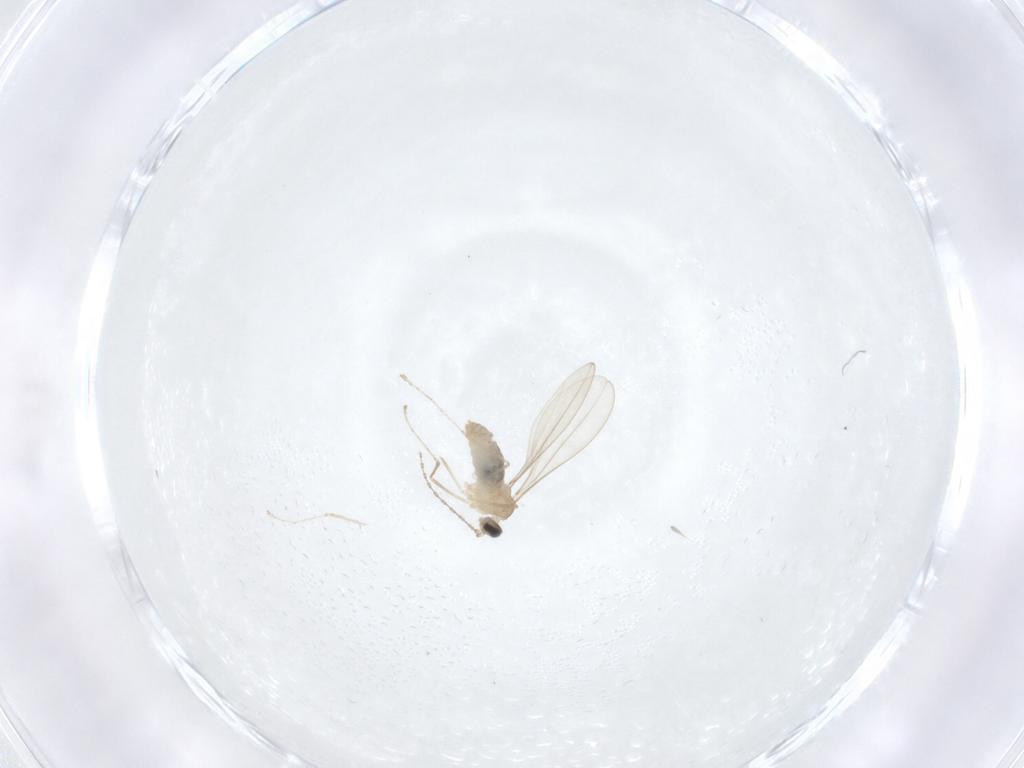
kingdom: Animalia
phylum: Arthropoda
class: Insecta
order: Diptera
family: Cecidomyiidae
